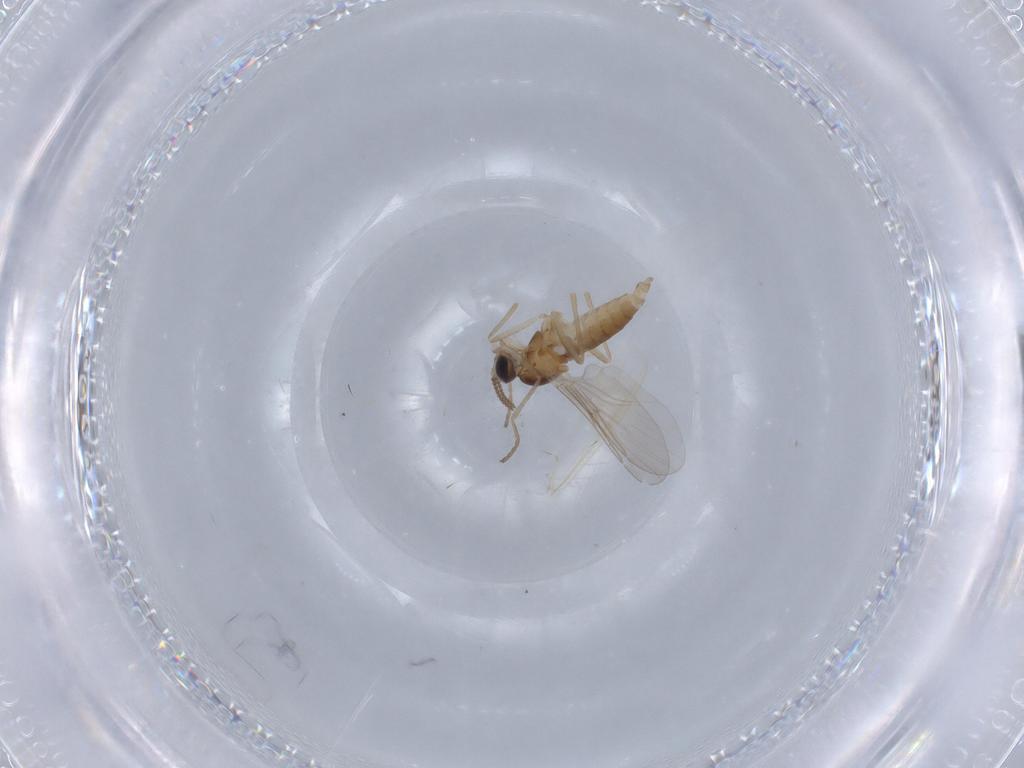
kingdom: Animalia
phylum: Arthropoda
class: Insecta
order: Diptera
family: Cecidomyiidae
